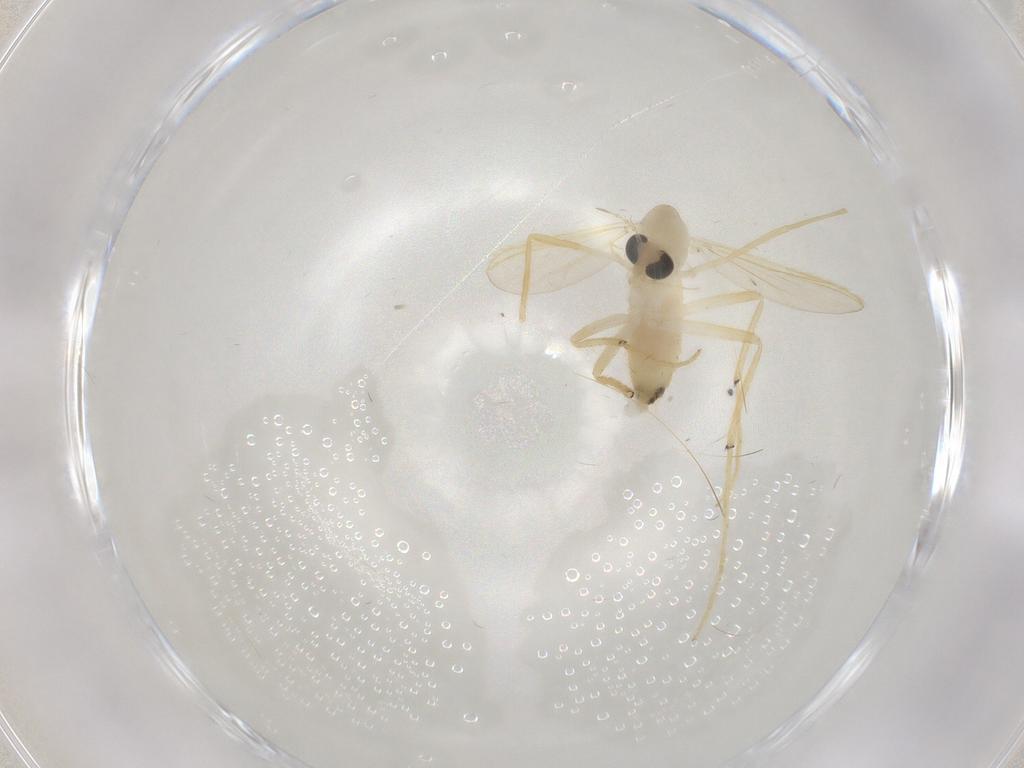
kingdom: Animalia
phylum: Arthropoda
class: Insecta
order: Diptera
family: Chironomidae
